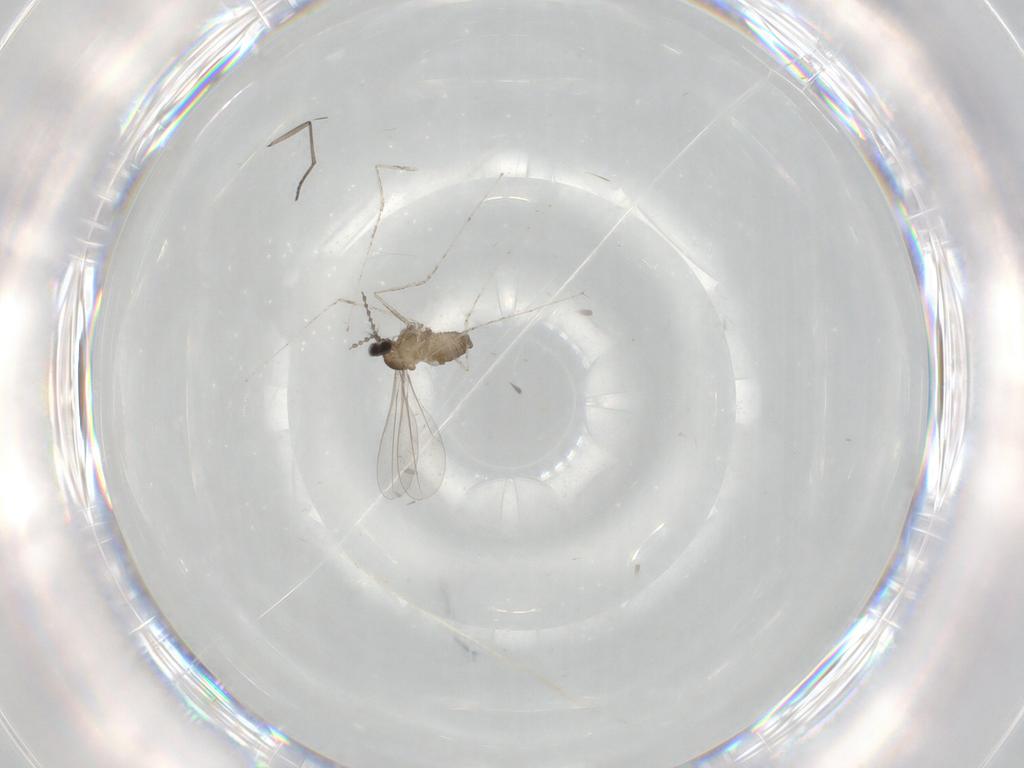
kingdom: Animalia
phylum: Arthropoda
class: Insecta
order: Diptera
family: Cecidomyiidae
